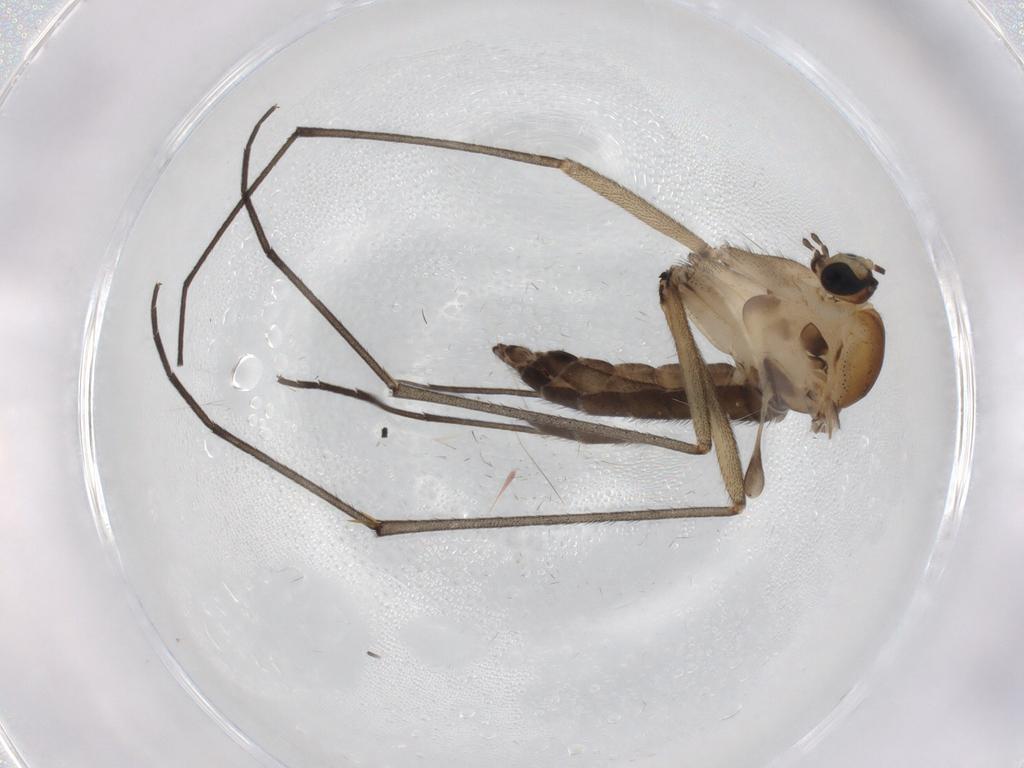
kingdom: Animalia
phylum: Arthropoda
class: Insecta
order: Diptera
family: Sciaridae
